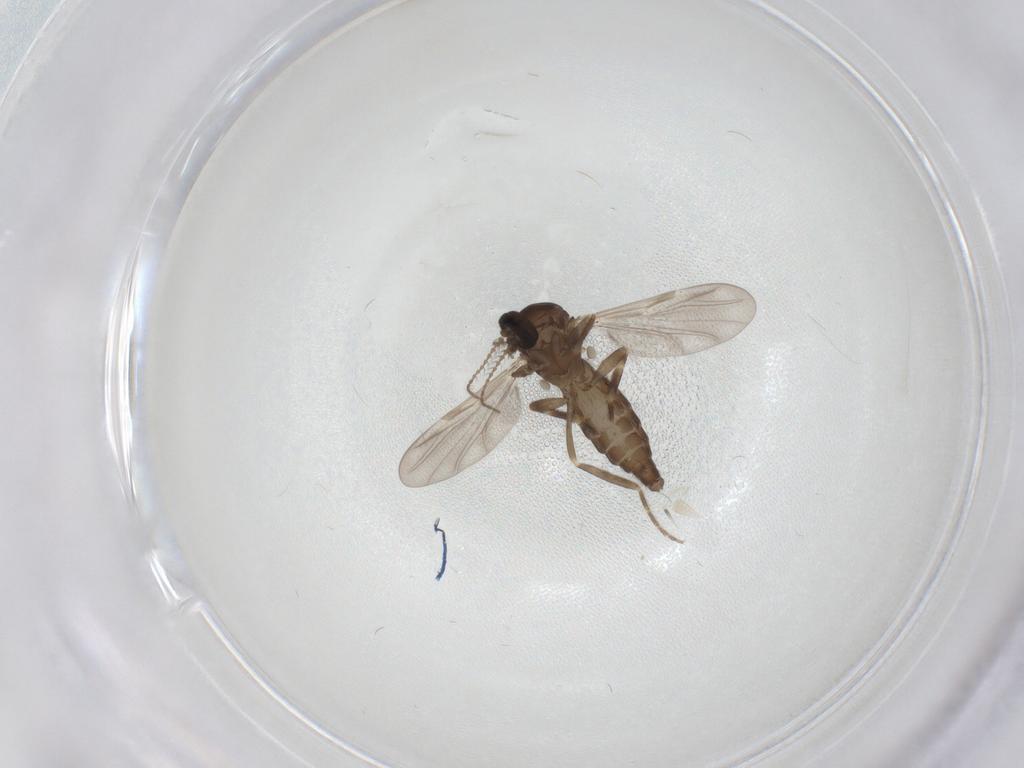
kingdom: Animalia
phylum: Arthropoda
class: Insecta
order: Diptera
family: Ceratopogonidae
